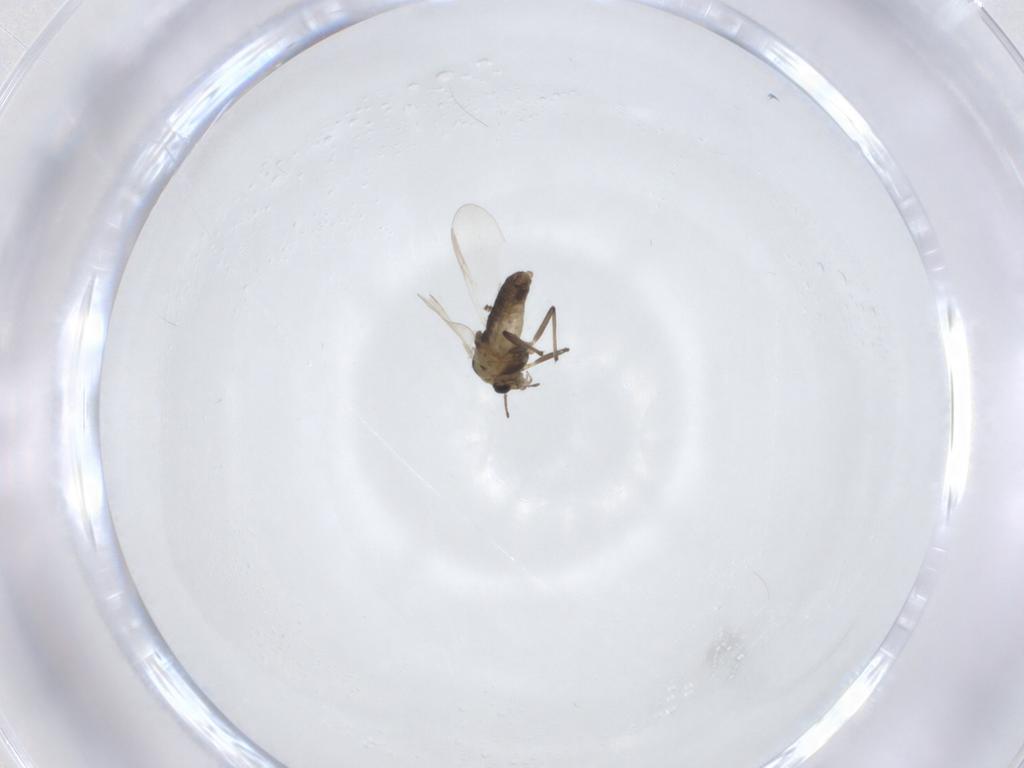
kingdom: Animalia
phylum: Arthropoda
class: Insecta
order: Diptera
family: Chironomidae
